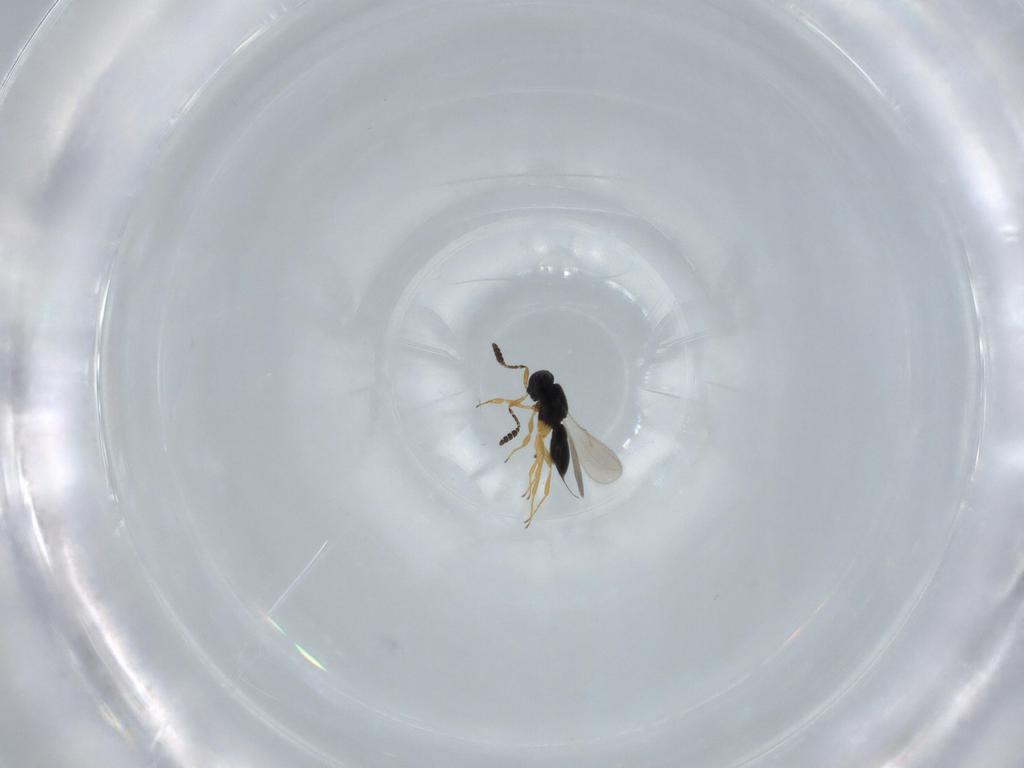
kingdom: Animalia
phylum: Arthropoda
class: Insecta
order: Hymenoptera
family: Scelionidae
